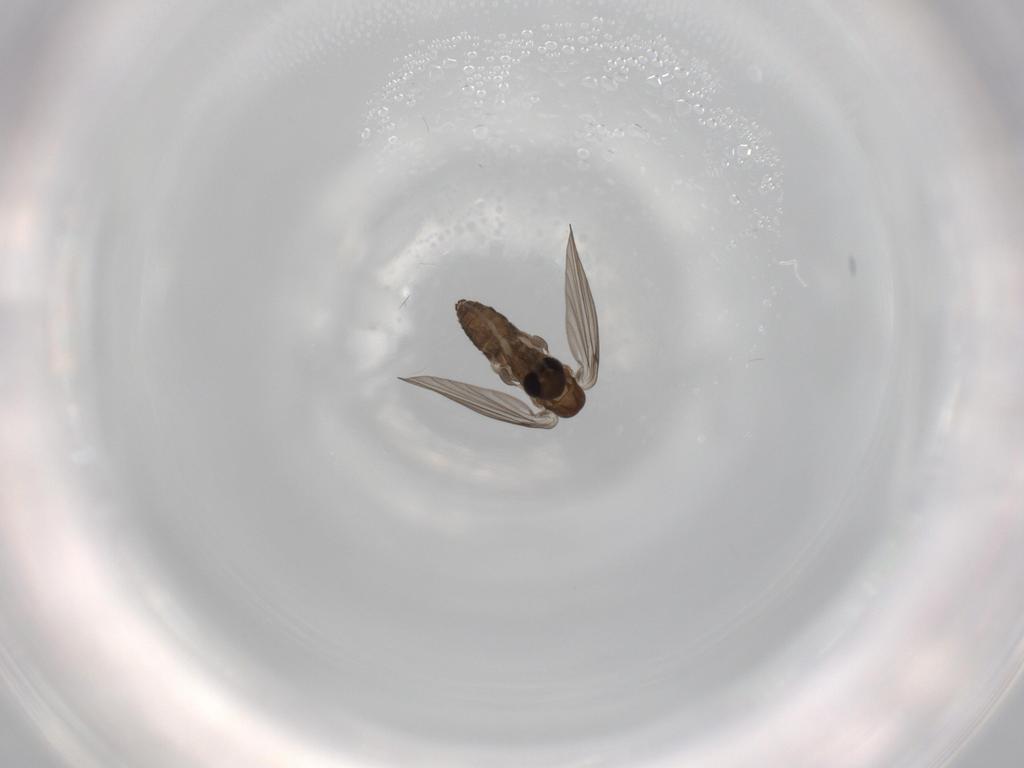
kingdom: Animalia
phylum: Arthropoda
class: Insecta
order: Diptera
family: Psychodidae
